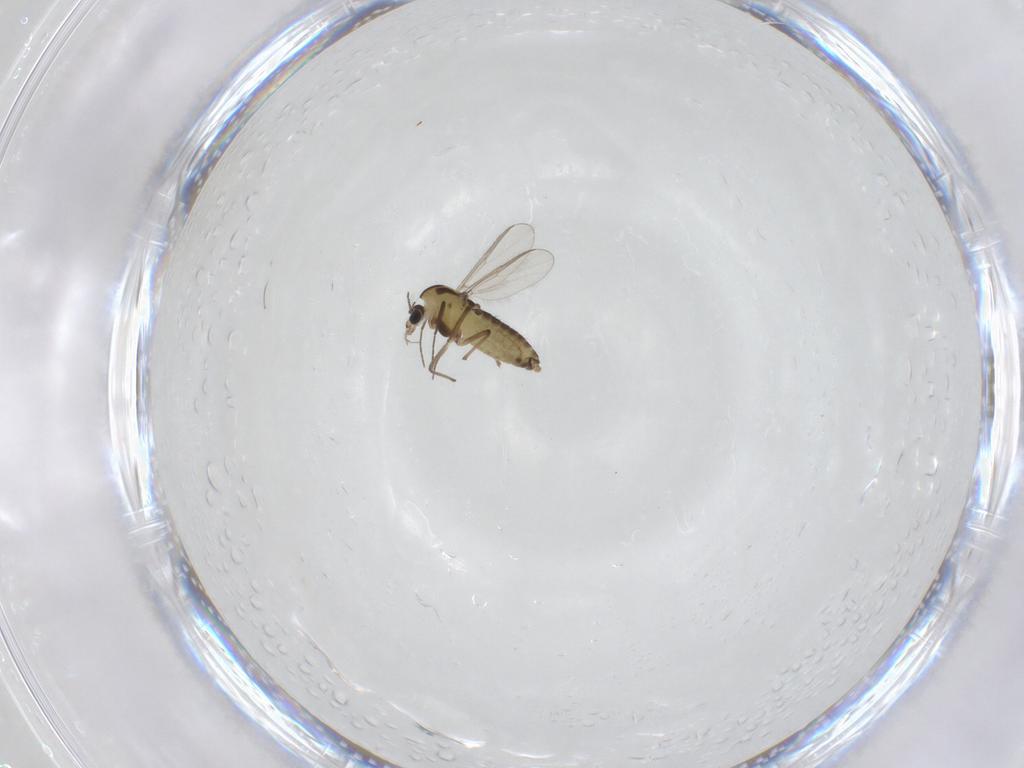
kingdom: Animalia
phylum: Arthropoda
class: Insecta
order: Diptera
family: Chironomidae
